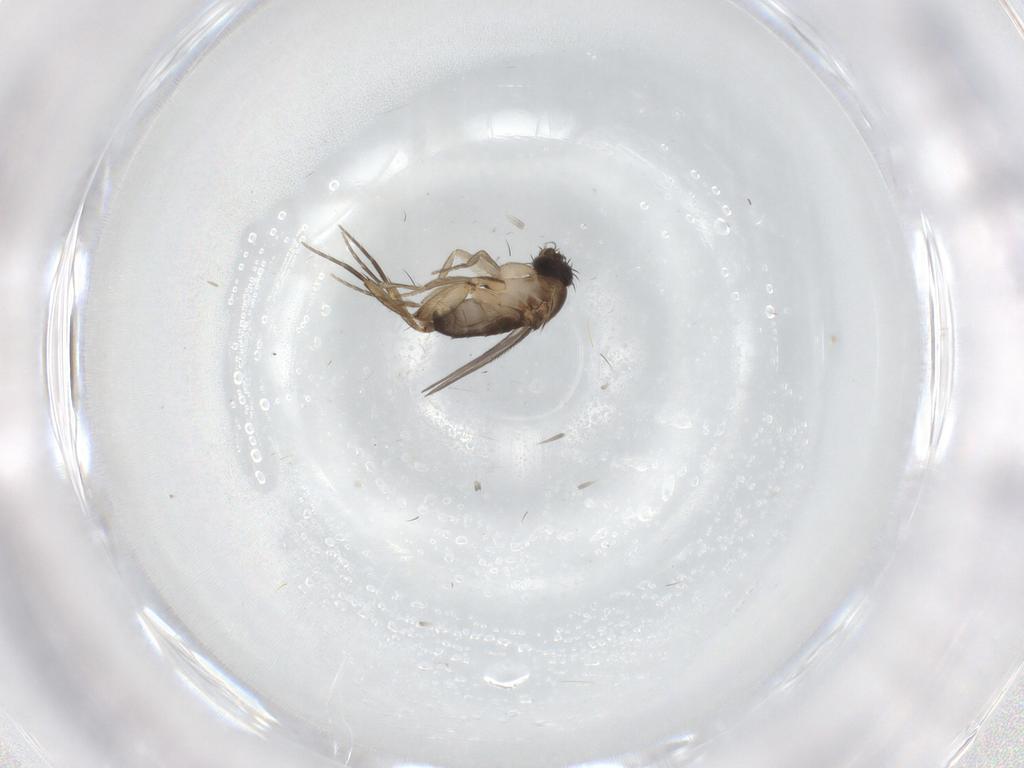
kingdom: Animalia
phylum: Arthropoda
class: Insecta
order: Diptera
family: Phoridae
